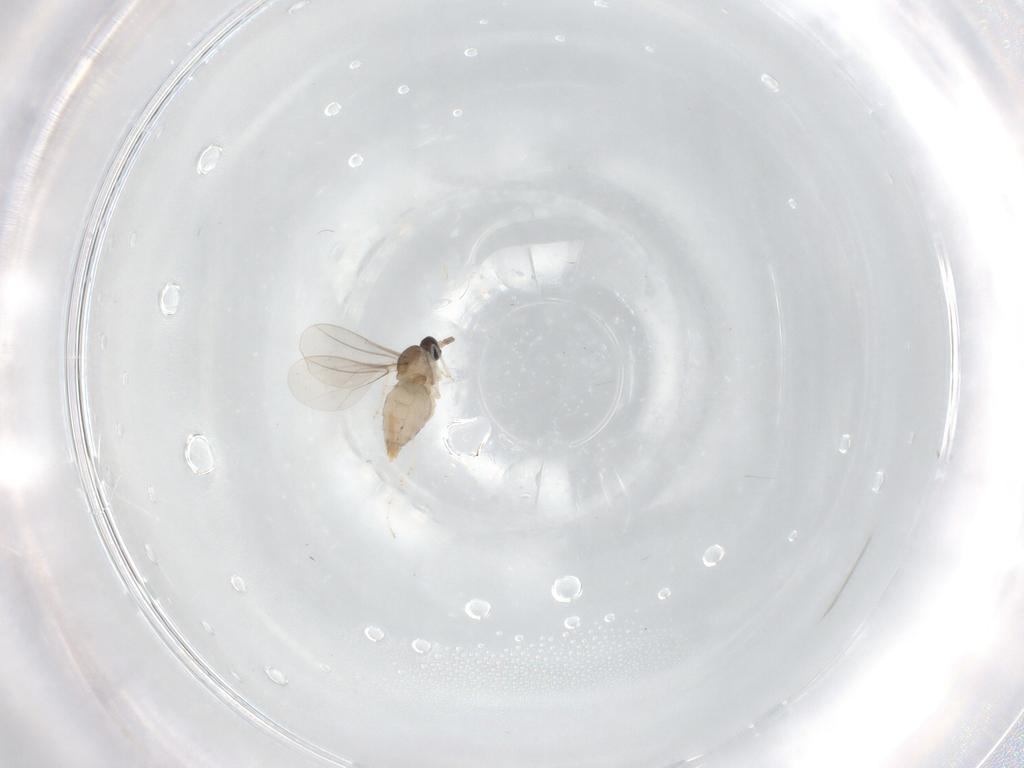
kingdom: Animalia
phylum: Arthropoda
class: Insecta
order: Diptera
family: Cecidomyiidae
